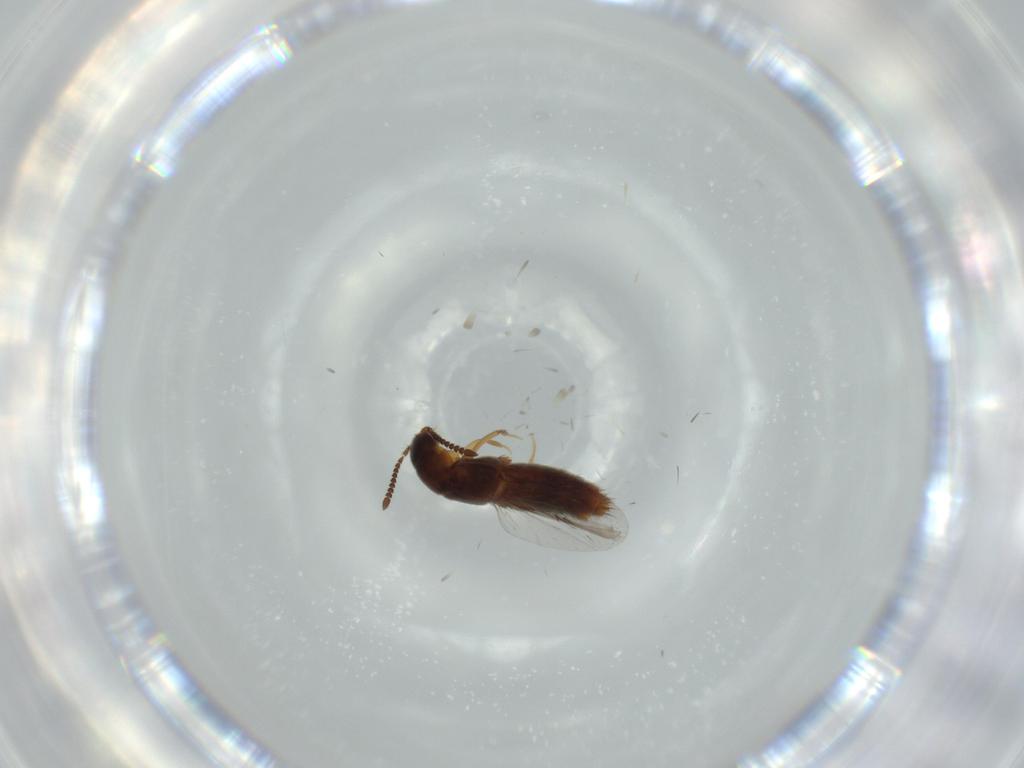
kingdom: Animalia
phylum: Arthropoda
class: Insecta
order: Coleoptera
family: Staphylinidae
